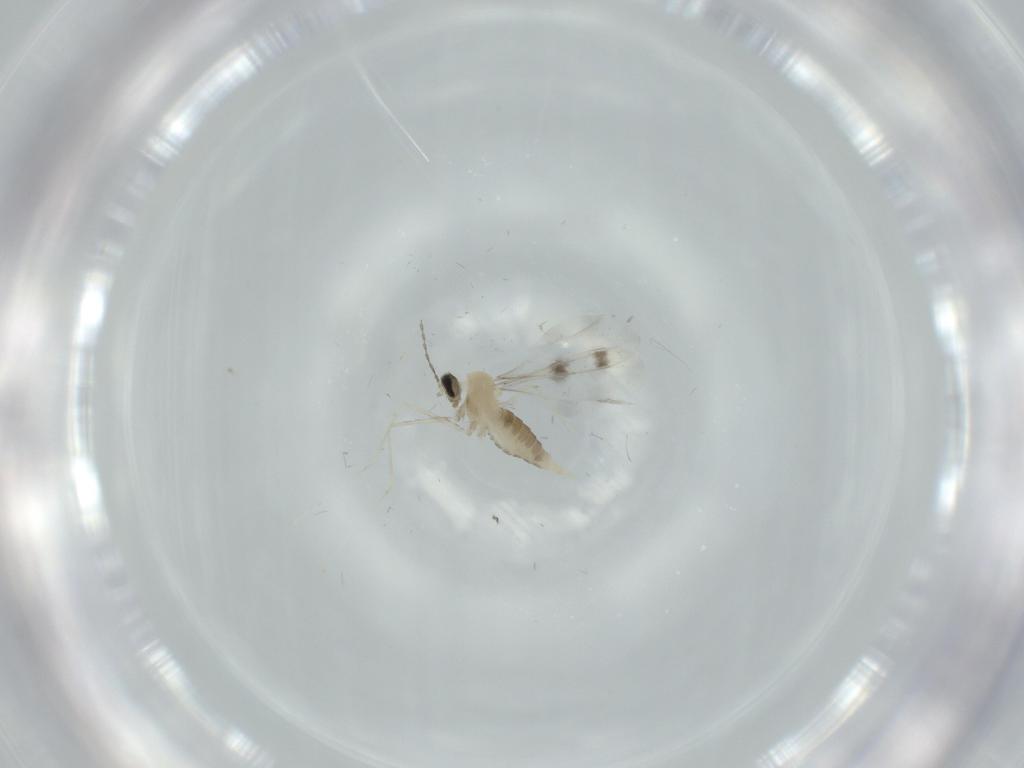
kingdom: Animalia
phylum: Arthropoda
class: Insecta
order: Diptera
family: Cecidomyiidae
